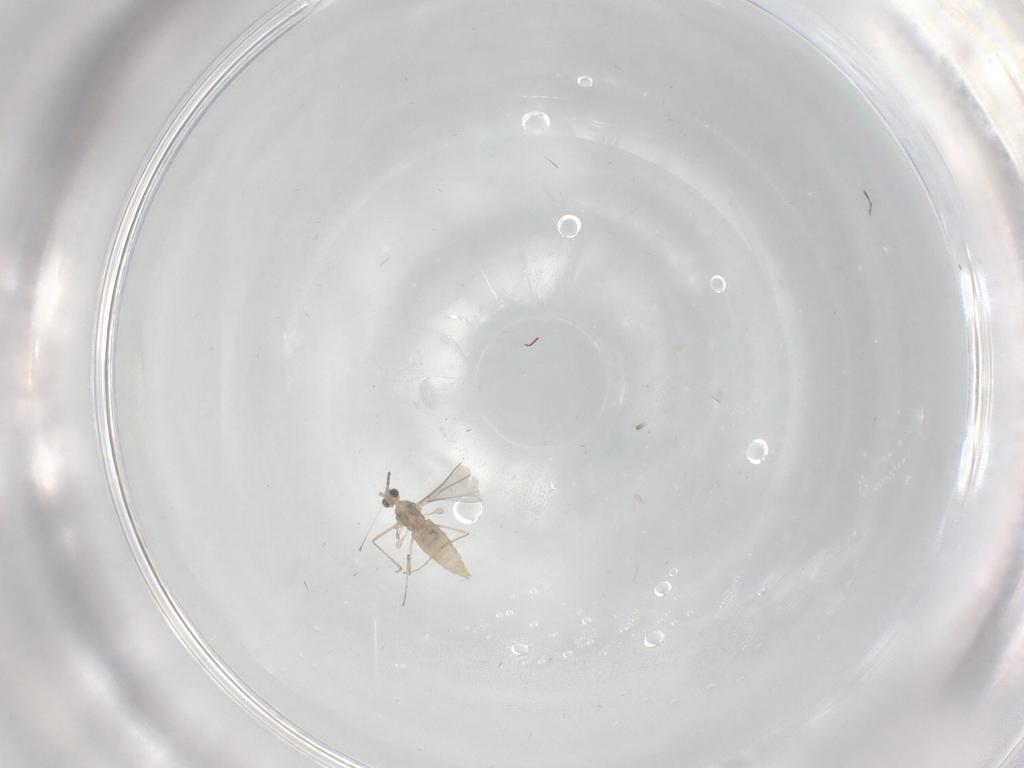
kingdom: Animalia
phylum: Arthropoda
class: Insecta
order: Diptera
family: Cecidomyiidae
